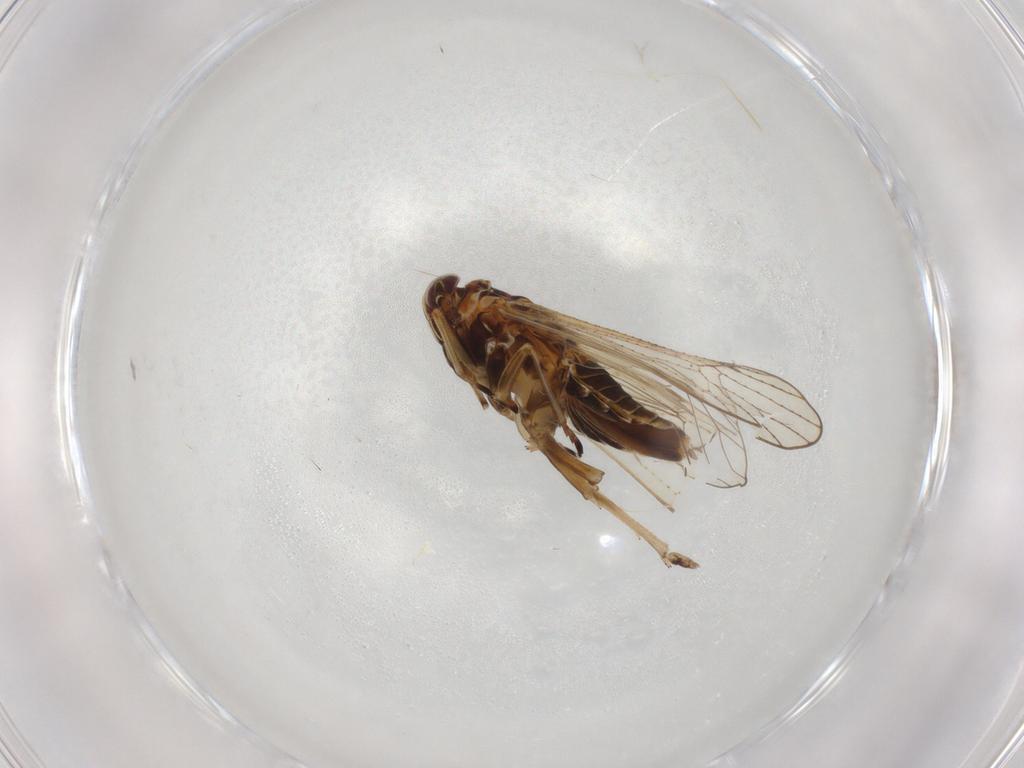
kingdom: Animalia
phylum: Arthropoda
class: Insecta
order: Hemiptera
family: Delphacidae
